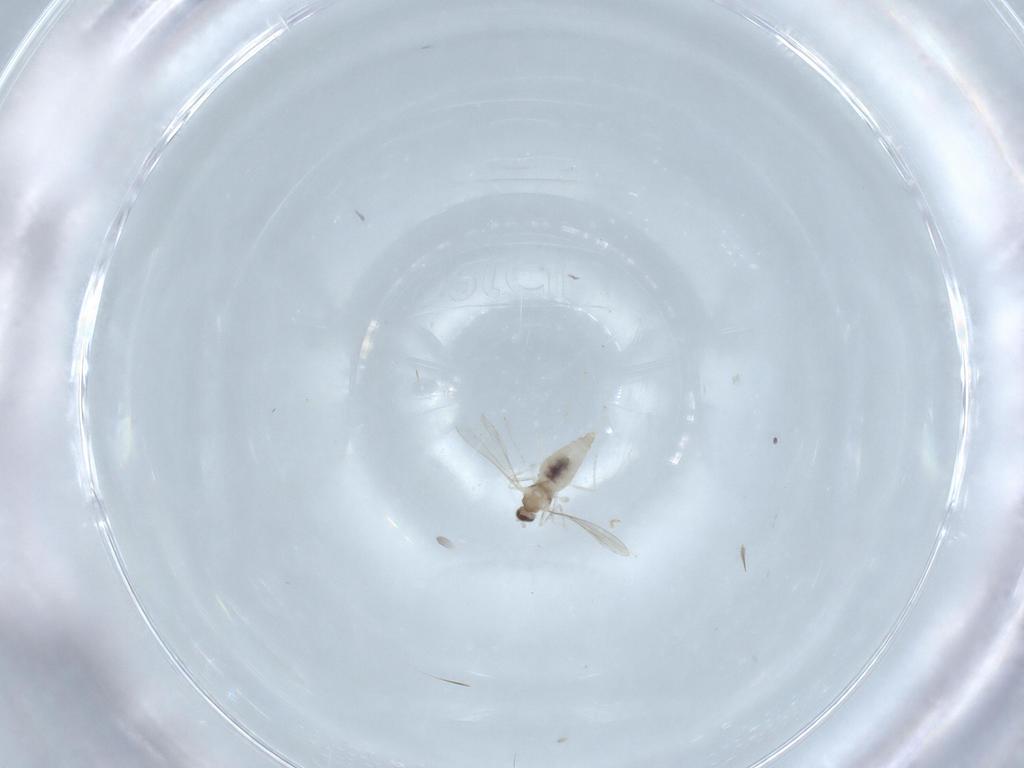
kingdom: Animalia
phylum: Arthropoda
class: Insecta
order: Diptera
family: Cecidomyiidae
